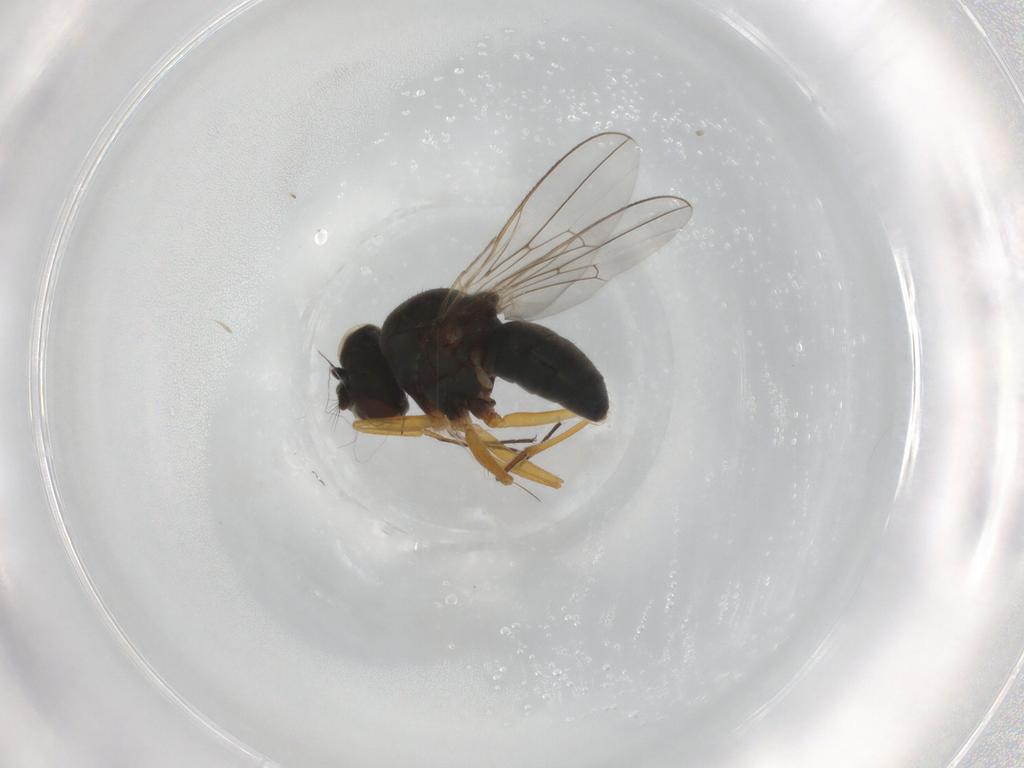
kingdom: Animalia
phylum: Arthropoda
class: Insecta
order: Diptera
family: Ephydridae
